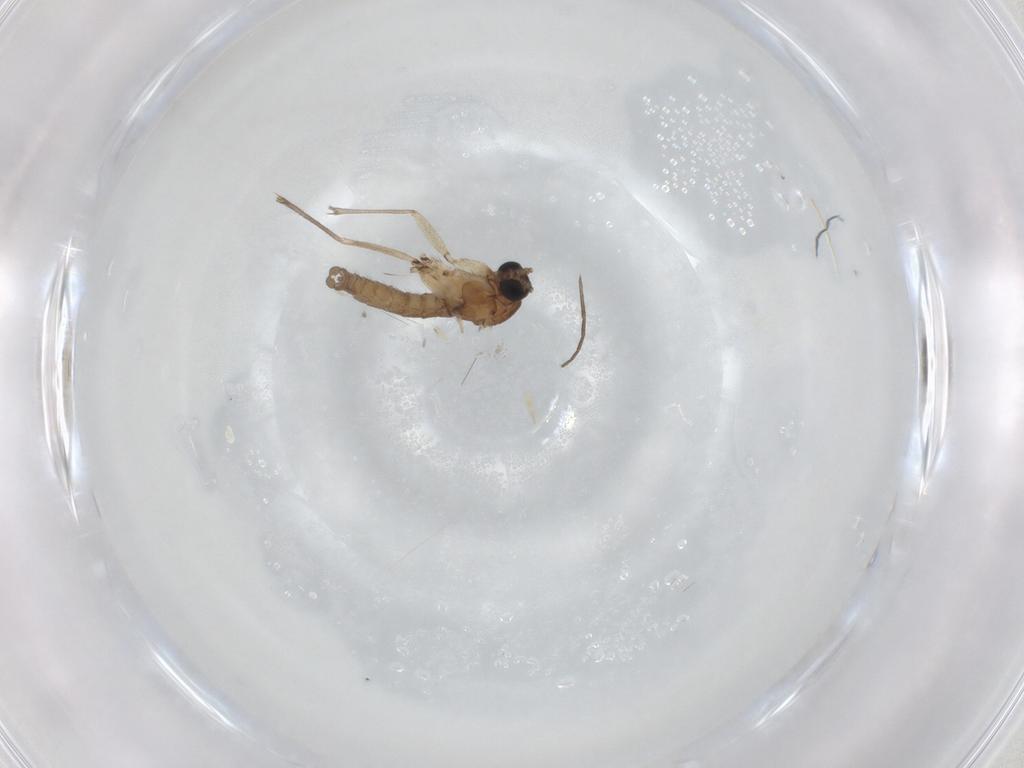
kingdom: Animalia
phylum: Arthropoda
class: Insecta
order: Diptera
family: Sciaridae
